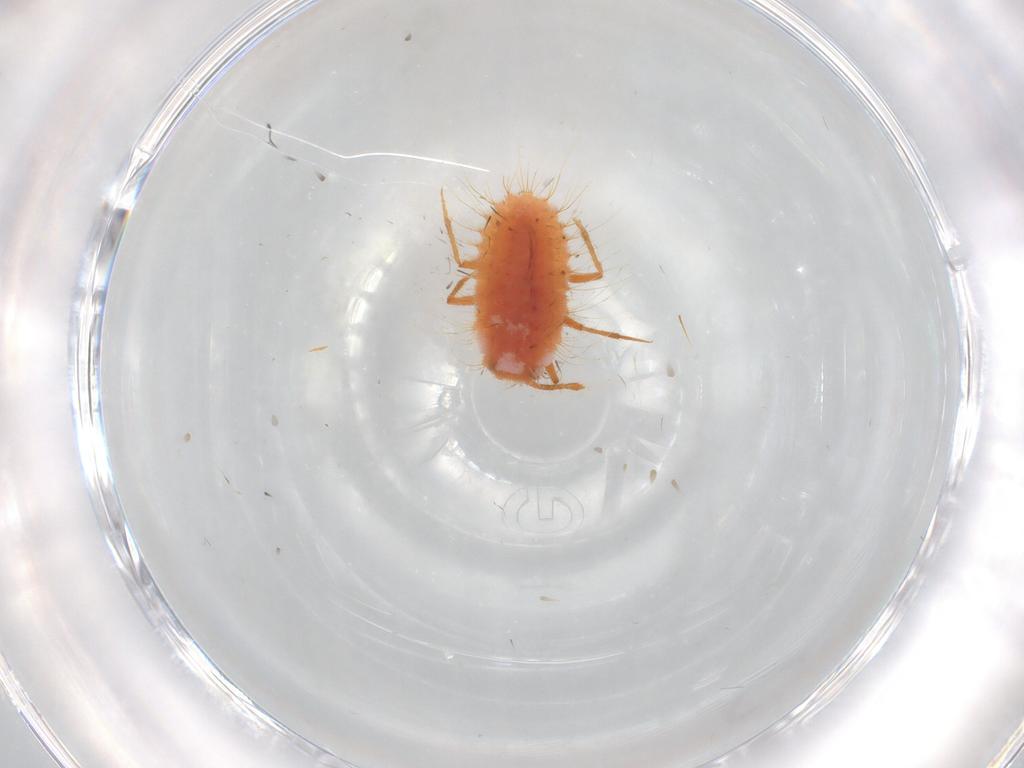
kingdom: Animalia
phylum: Arthropoda
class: Insecta
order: Hemiptera
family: Coccoidea_incertae_sedis
